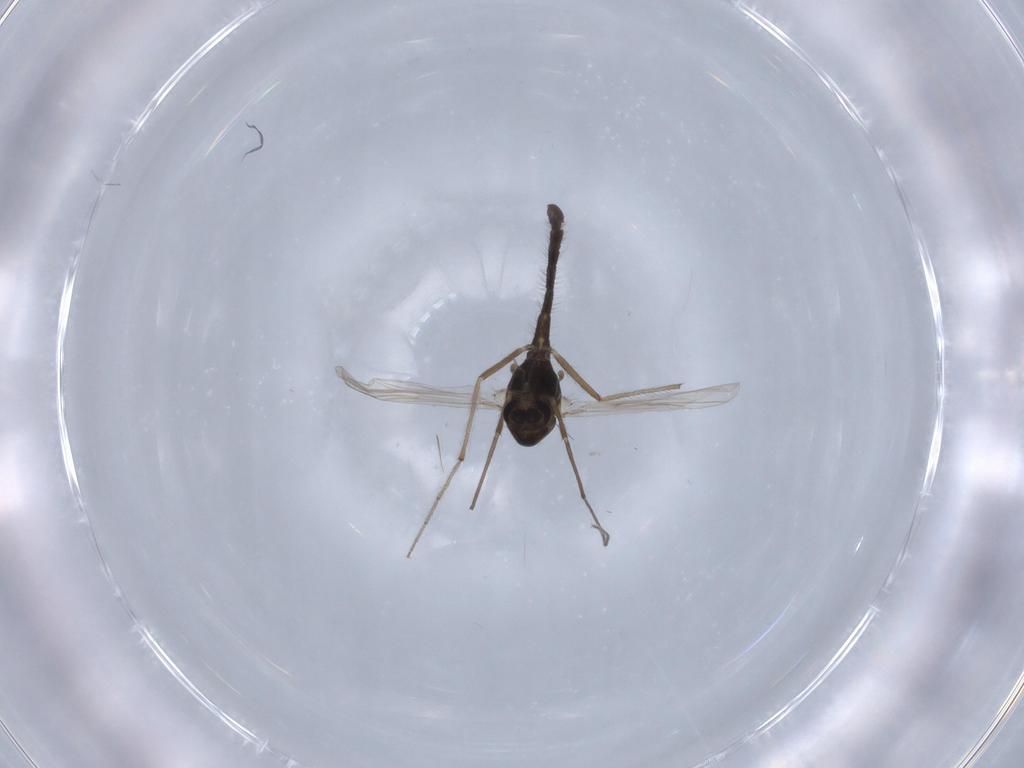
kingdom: Animalia
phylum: Arthropoda
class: Insecta
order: Diptera
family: Chironomidae
